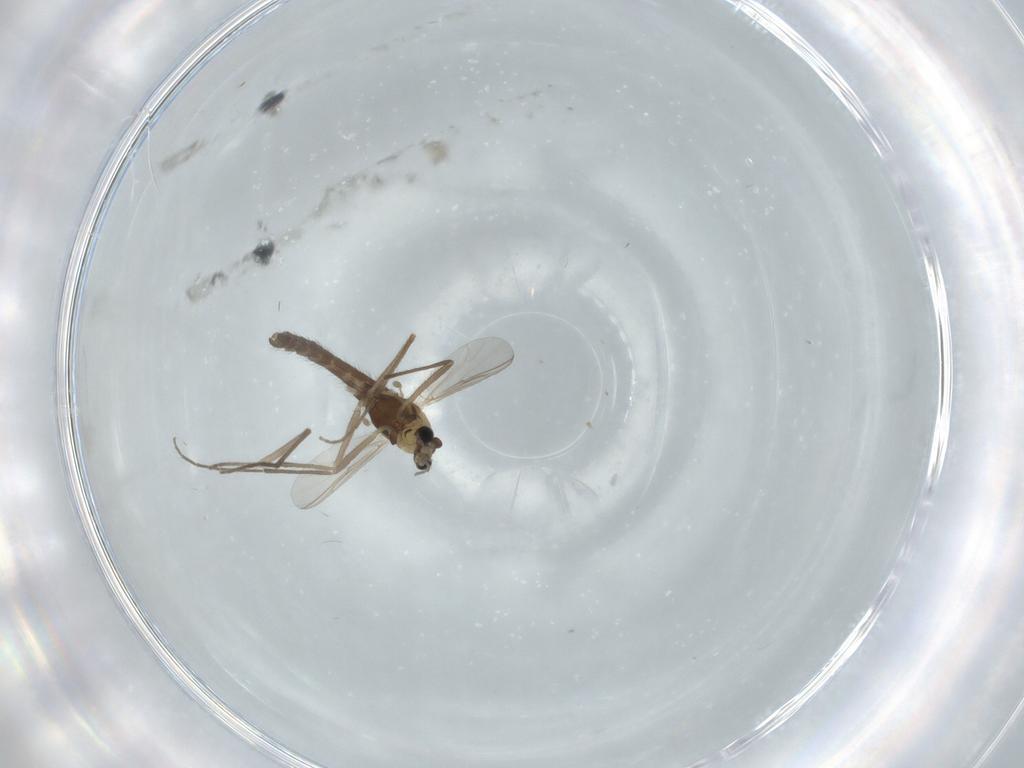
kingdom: Animalia
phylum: Arthropoda
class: Insecta
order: Diptera
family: Chironomidae
